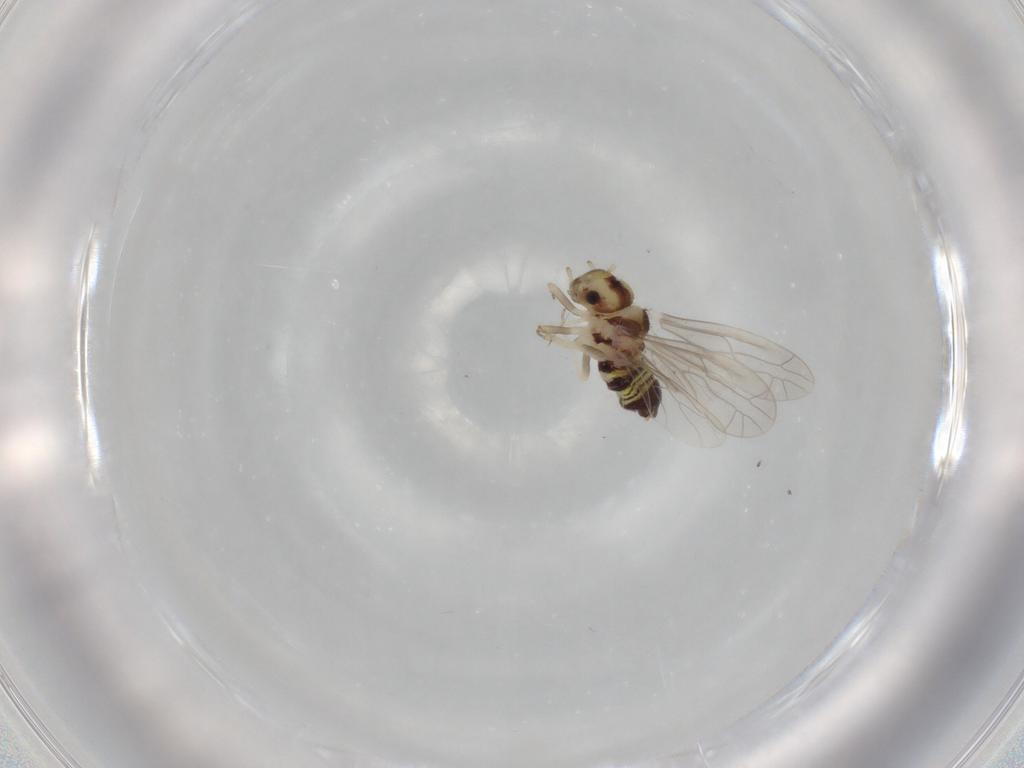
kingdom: Animalia
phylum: Arthropoda
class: Insecta
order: Psocodea
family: Ectopsocidae
